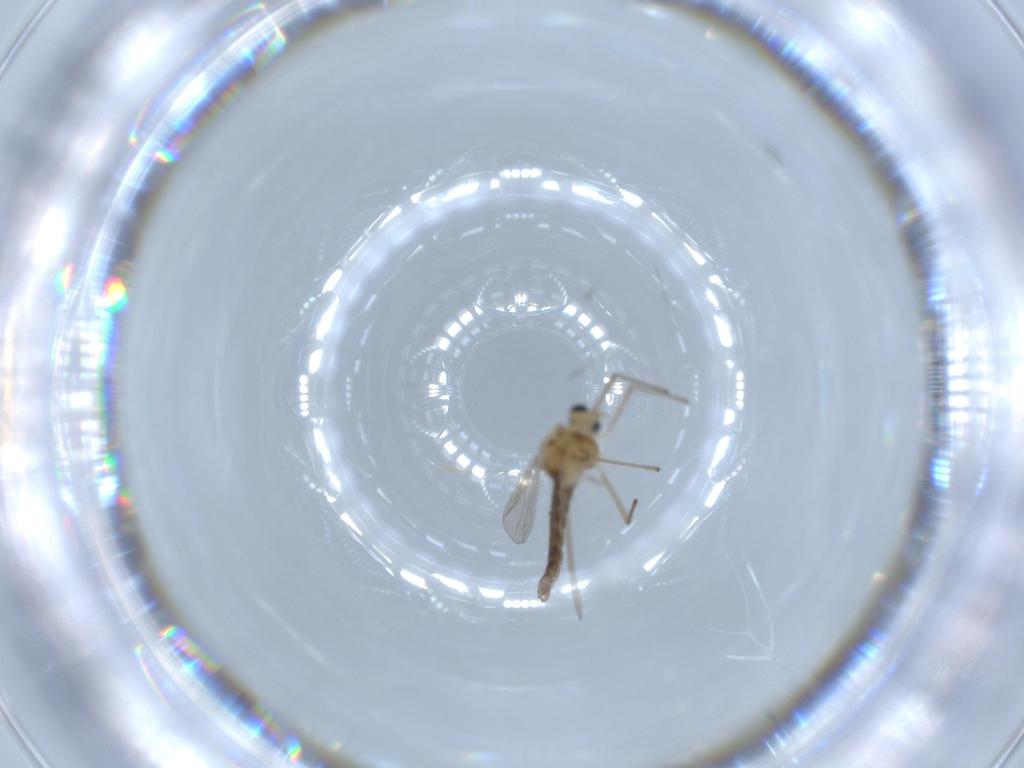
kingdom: Animalia
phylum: Arthropoda
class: Insecta
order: Diptera
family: Chironomidae
